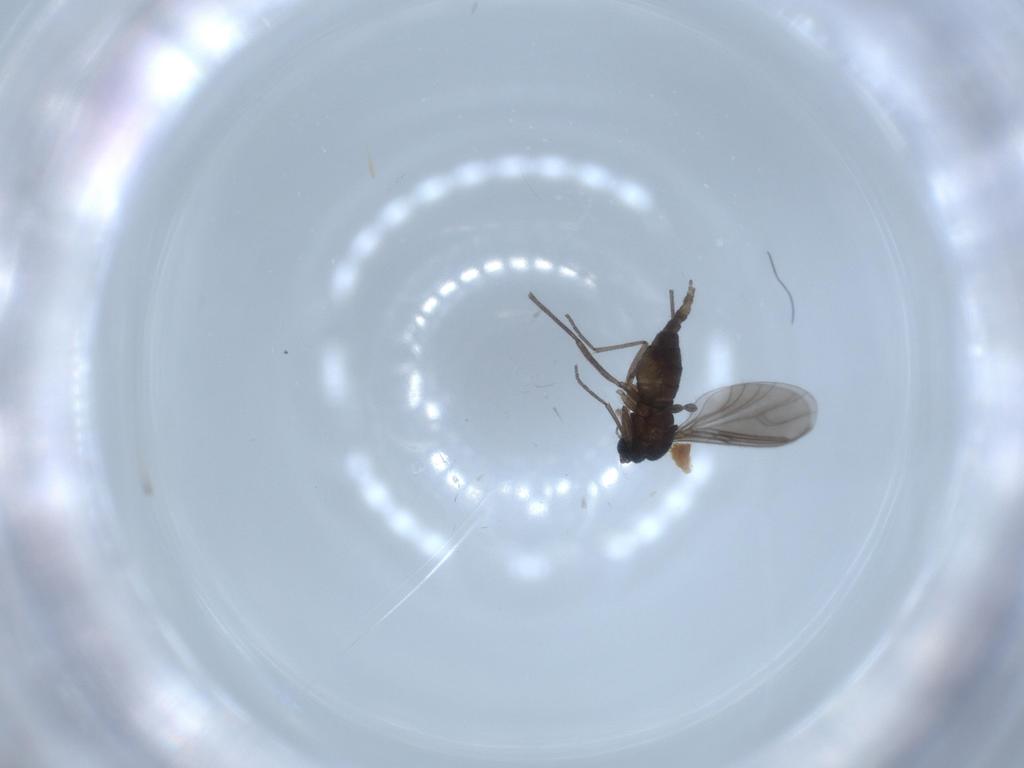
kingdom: Animalia
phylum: Arthropoda
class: Insecta
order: Diptera
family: Sciaridae
